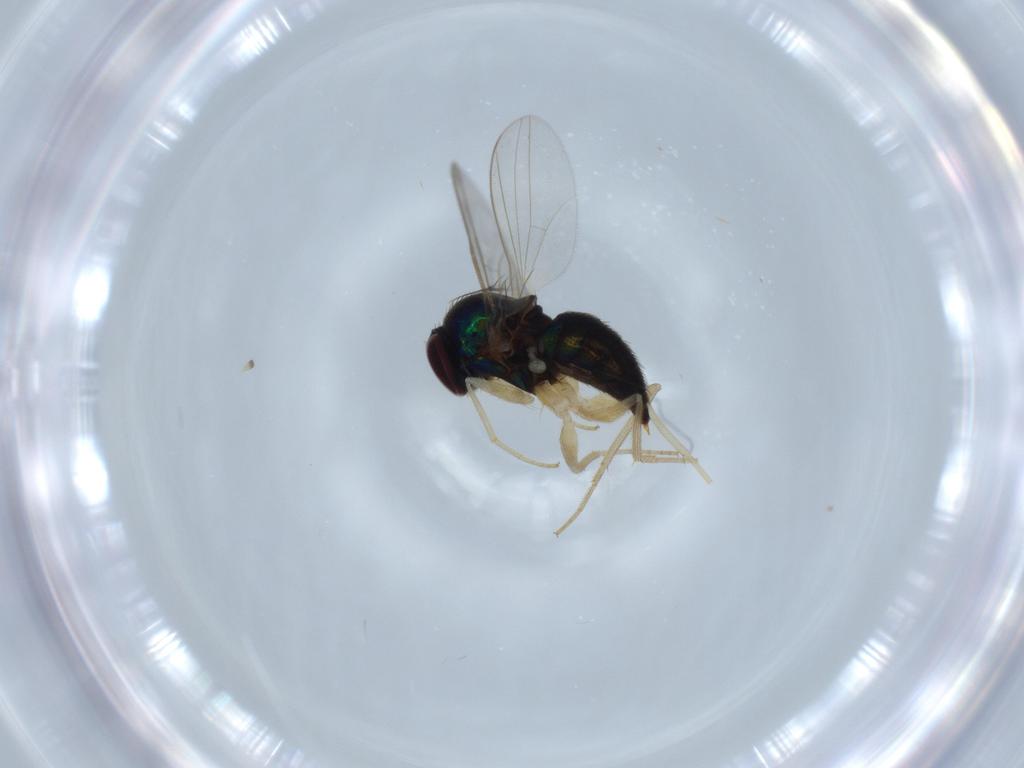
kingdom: Animalia
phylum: Arthropoda
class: Insecta
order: Diptera
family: Dolichopodidae
